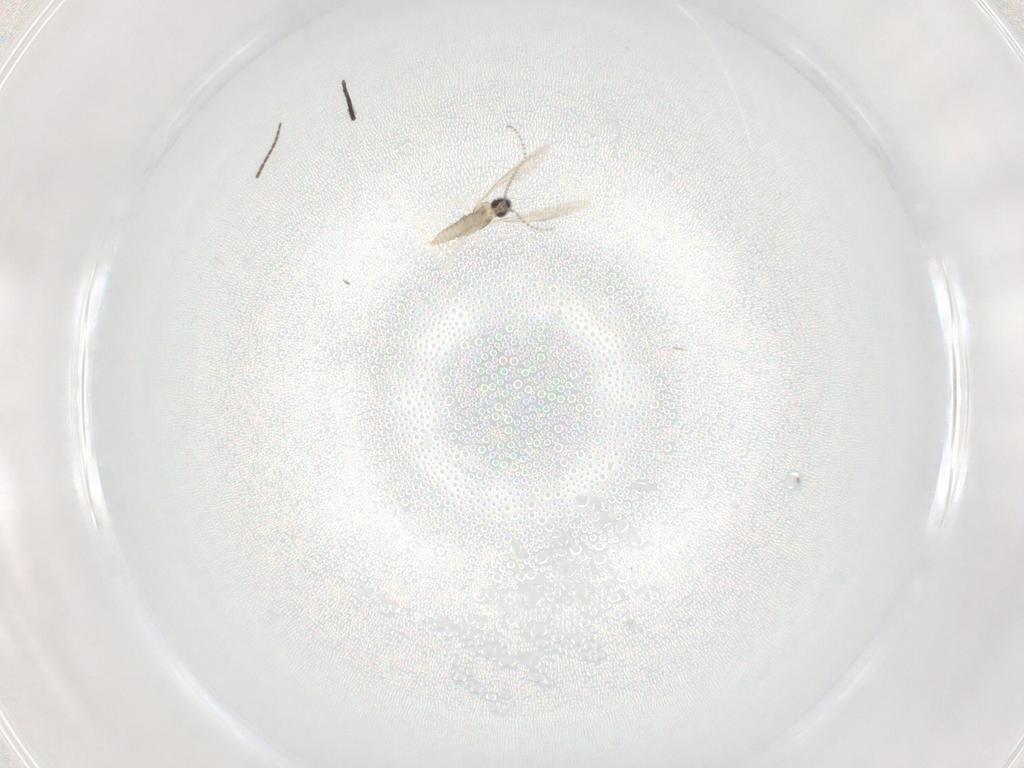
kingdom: Animalia
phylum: Arthropoda
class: Insecta
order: Diptera
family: Cecidomyiidae
